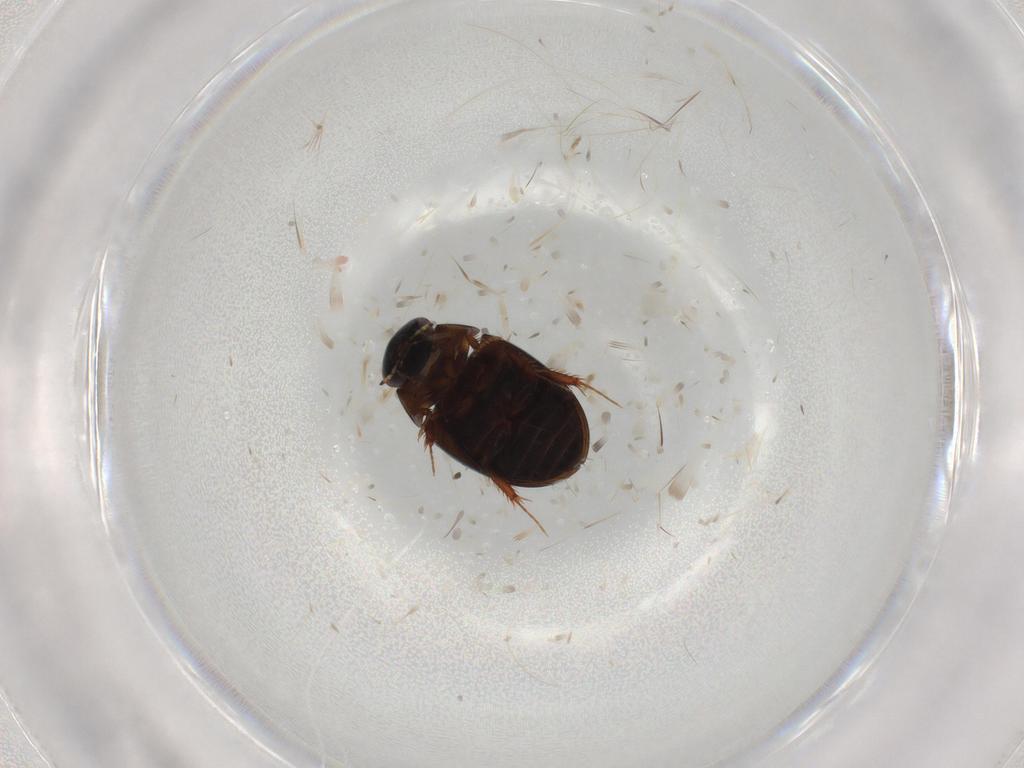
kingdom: Animalia
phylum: Arthropoda
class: Insecta
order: Coleoptera
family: Hydrophilidae
